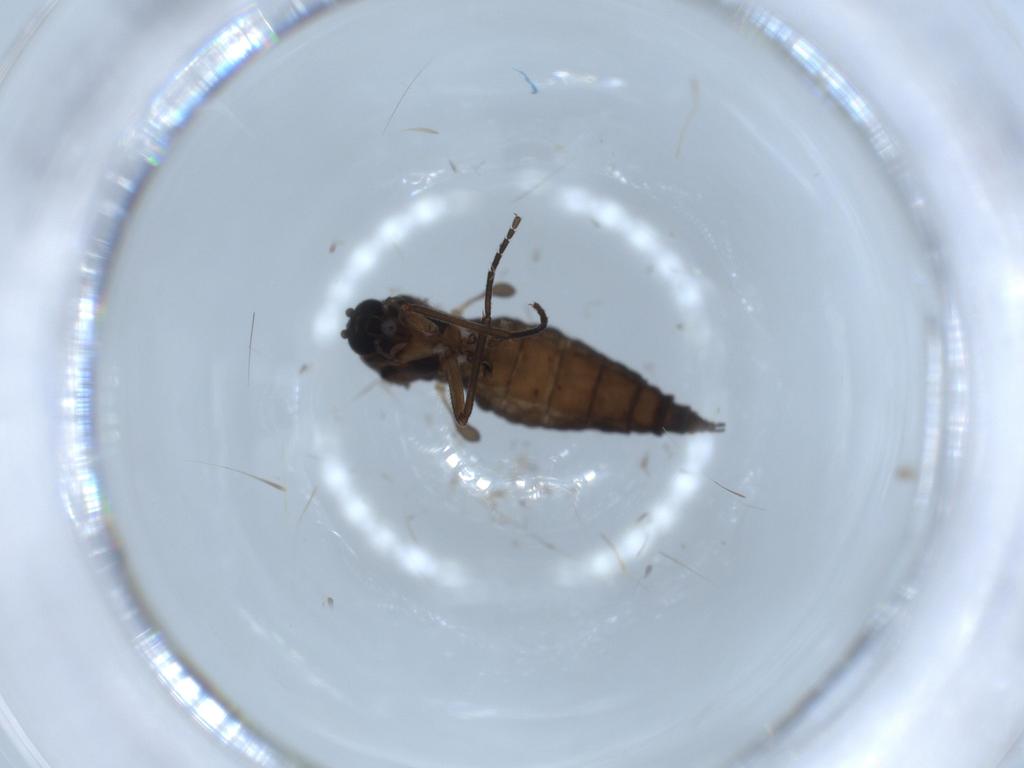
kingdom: Animalia
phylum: Arthropoda
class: Insecta
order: Diptera
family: Sciaridae
